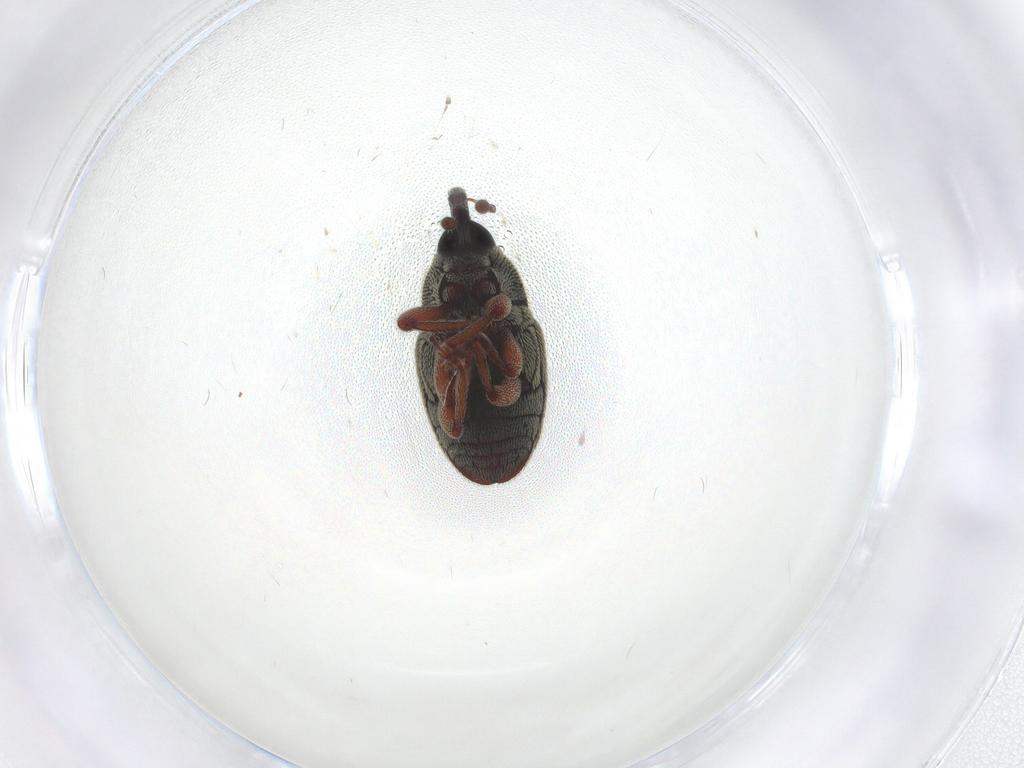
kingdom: Animalia
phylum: Arthropoda
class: Insecta
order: Coleoptera
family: Curculionidae
